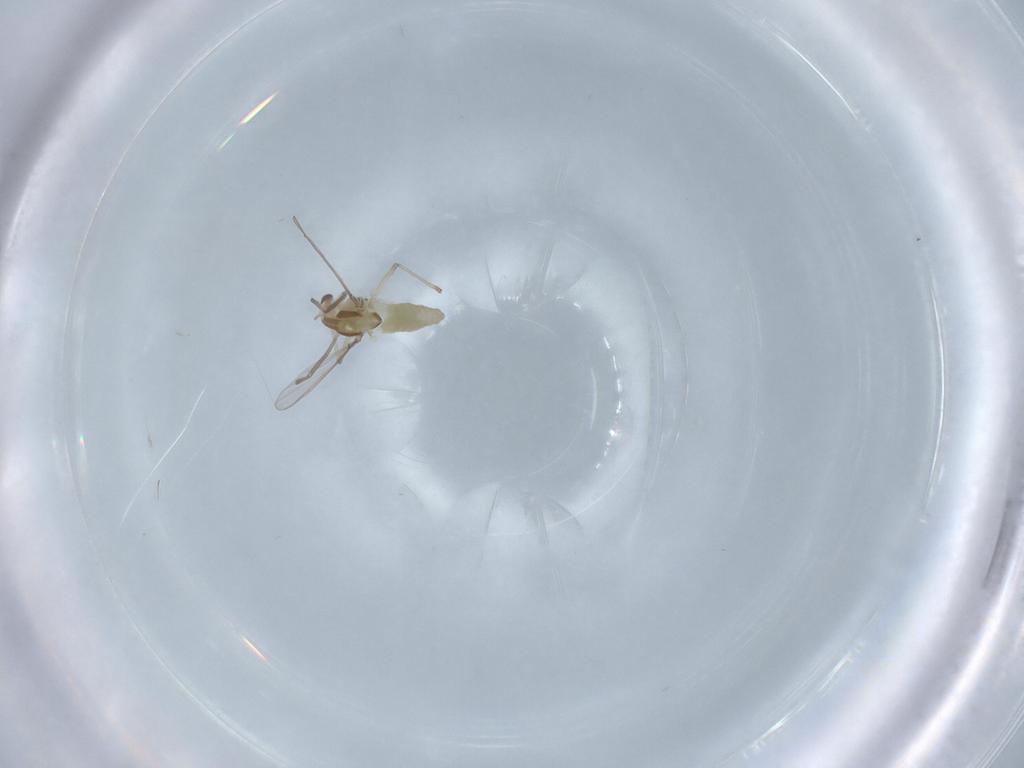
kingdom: Animalia
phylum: Arthropoda
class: Insecta
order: Diptera
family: Chironomidae
